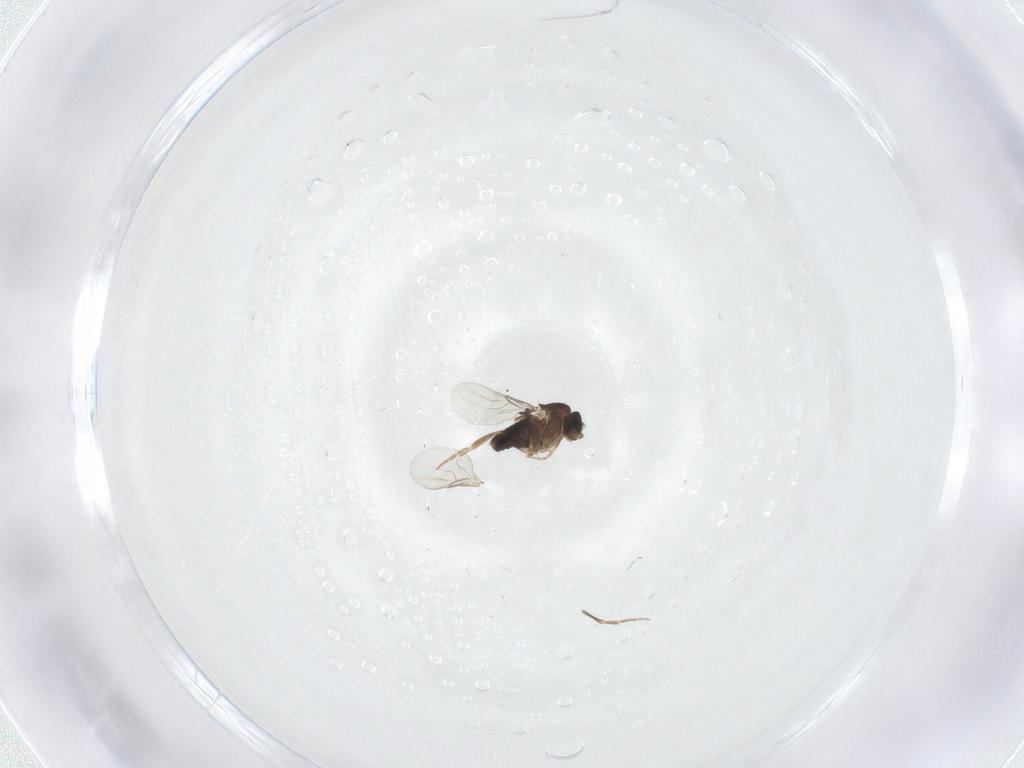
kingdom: Animalia
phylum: Arthropoda
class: Insecta
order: Diptera
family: Phoridae
